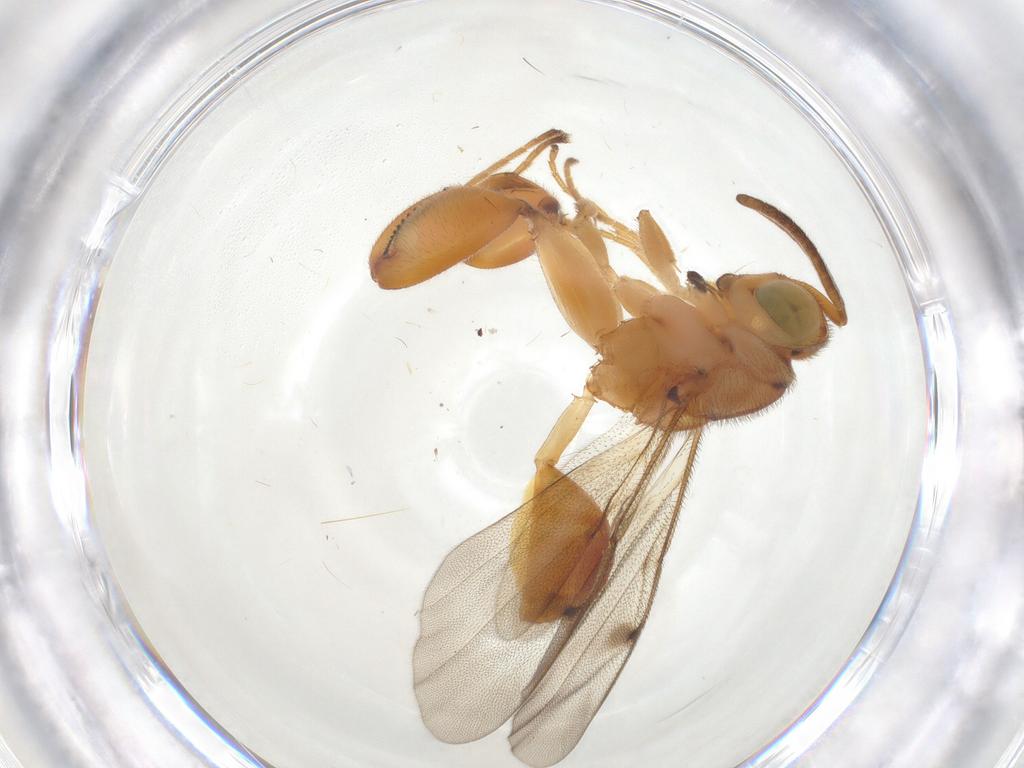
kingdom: Animalia
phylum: Arthropoda
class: Insecta
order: Hymenoptera
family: Chalcididae
